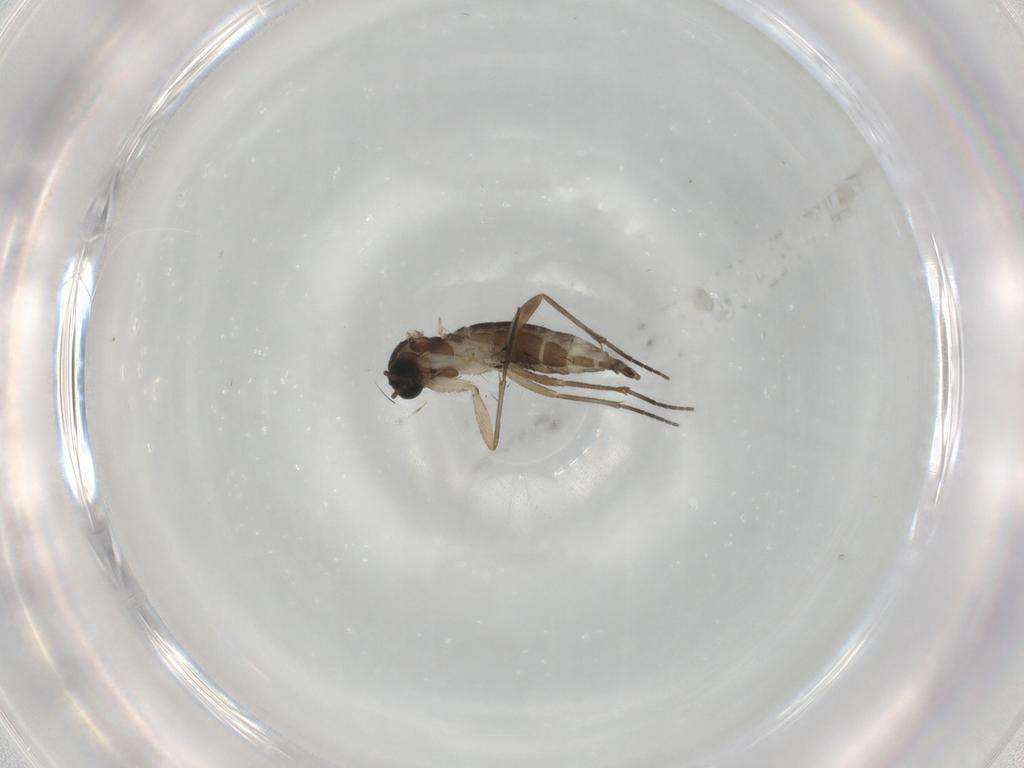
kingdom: Animalia
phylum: Arthropoda
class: Insecta
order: Diptera
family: Sciaridae
